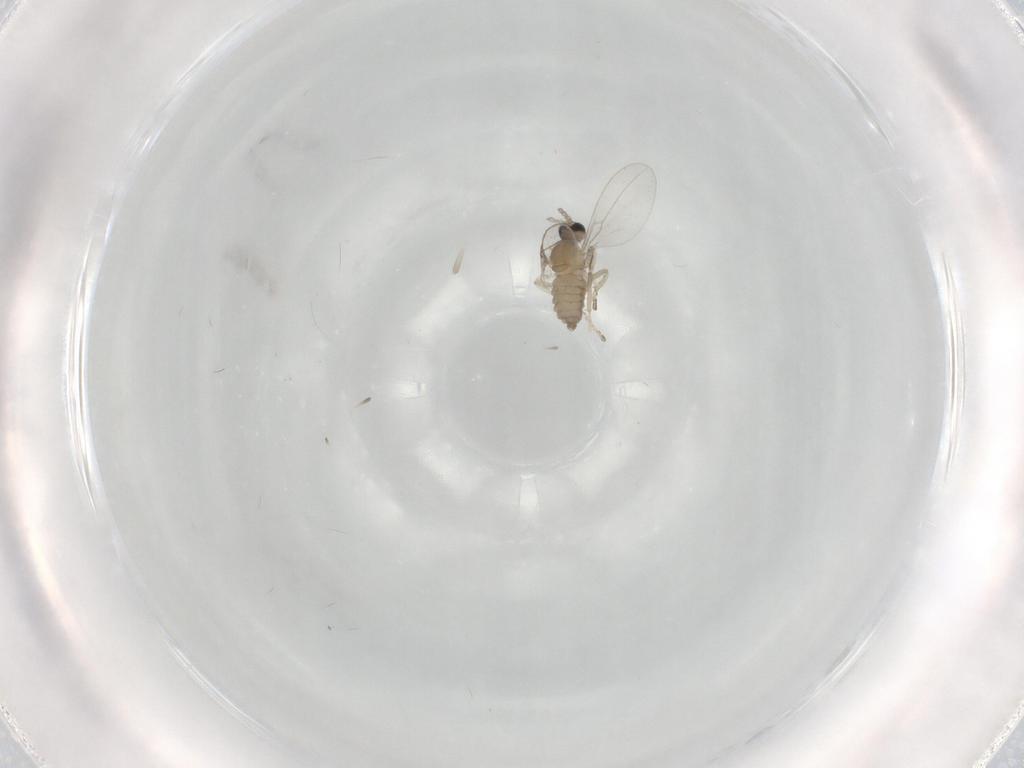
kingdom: Animalia
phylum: Arthropoda
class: Insecta
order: Diptera
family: Cecidomyiidae
